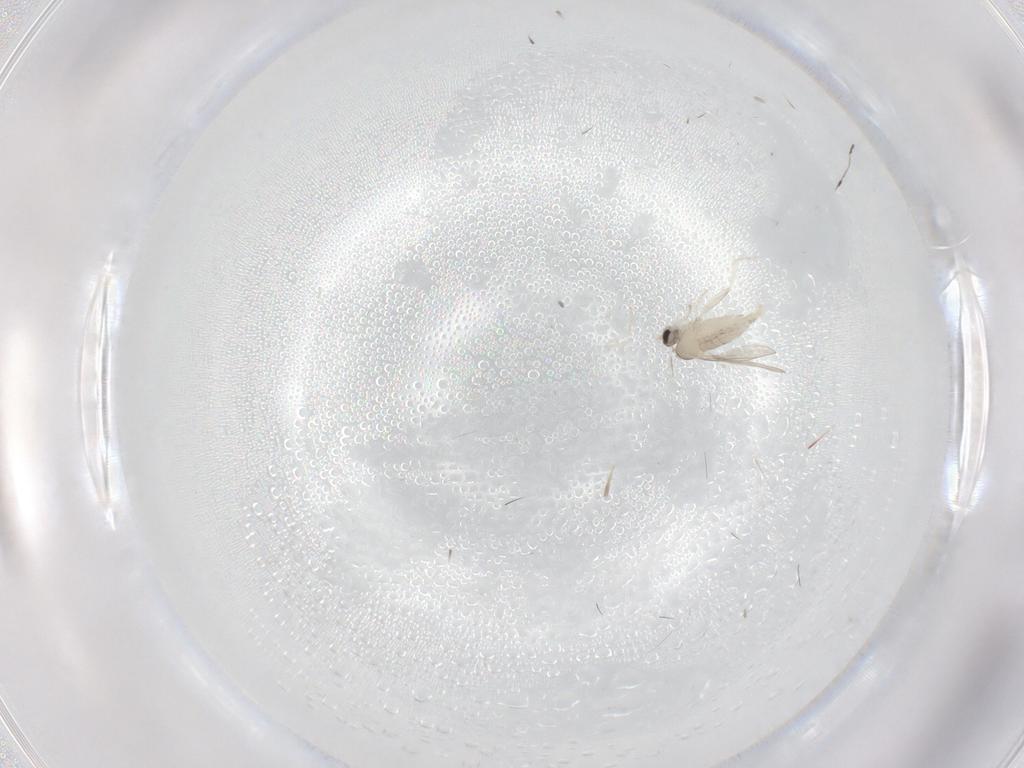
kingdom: Animalia
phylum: Arthropoda
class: Insecta
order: Diptera
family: Cecidomyiidae
